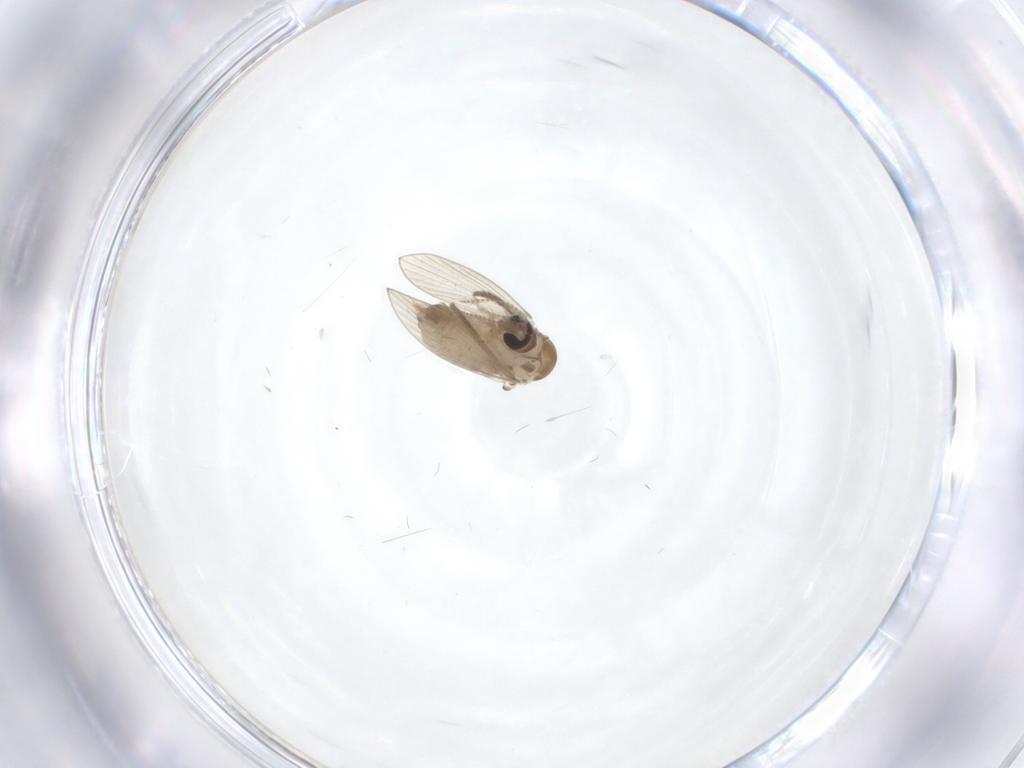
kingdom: Animalia
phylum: Arthropoda
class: Insecta
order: Diptera
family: Psychodidae
